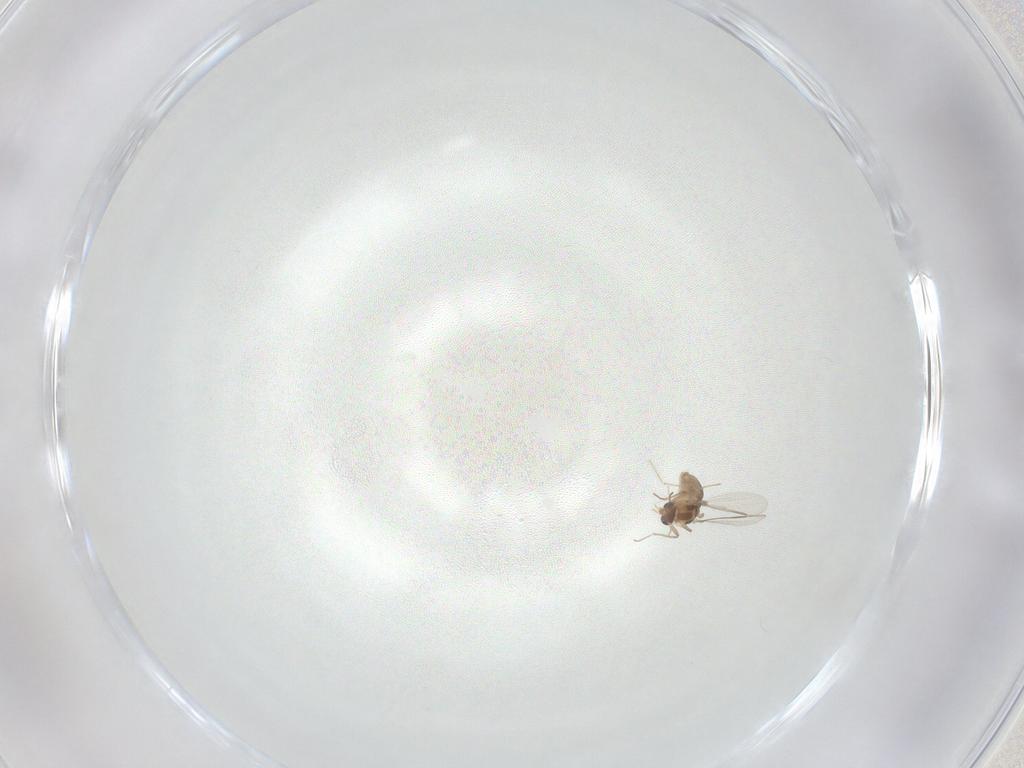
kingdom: Animalia
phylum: Arthropoda
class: Insecta
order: Diptera
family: Chironomidae
